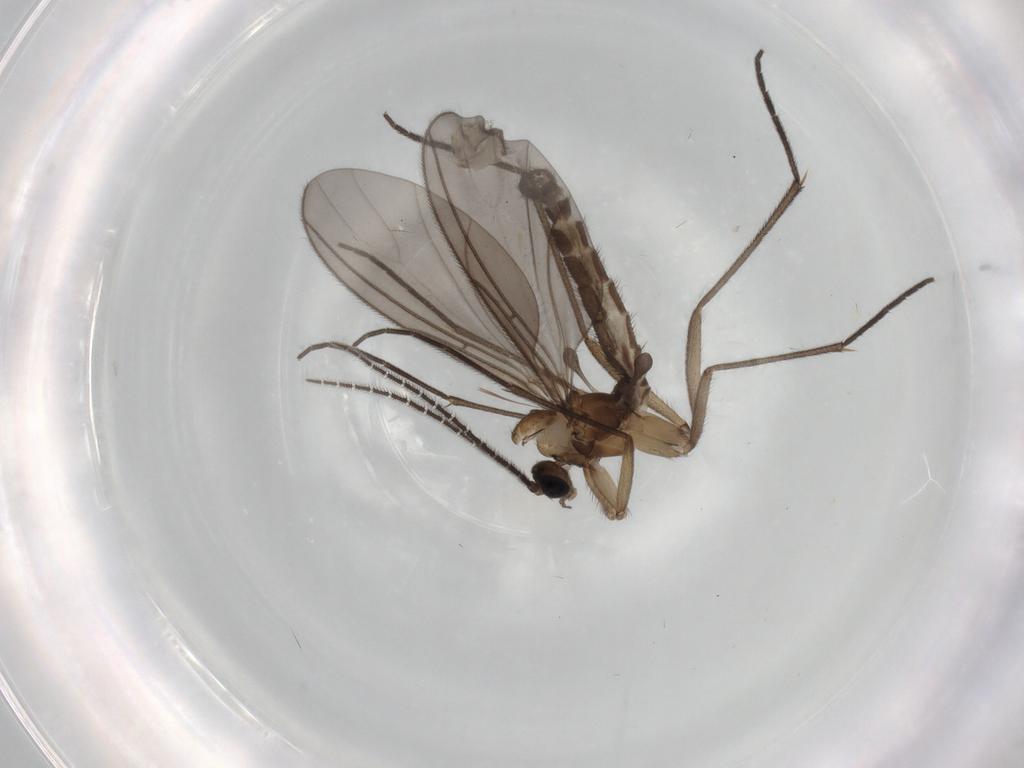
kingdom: Animalia
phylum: Arthropoda
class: Insecta
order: Diptera
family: Sciaridae
